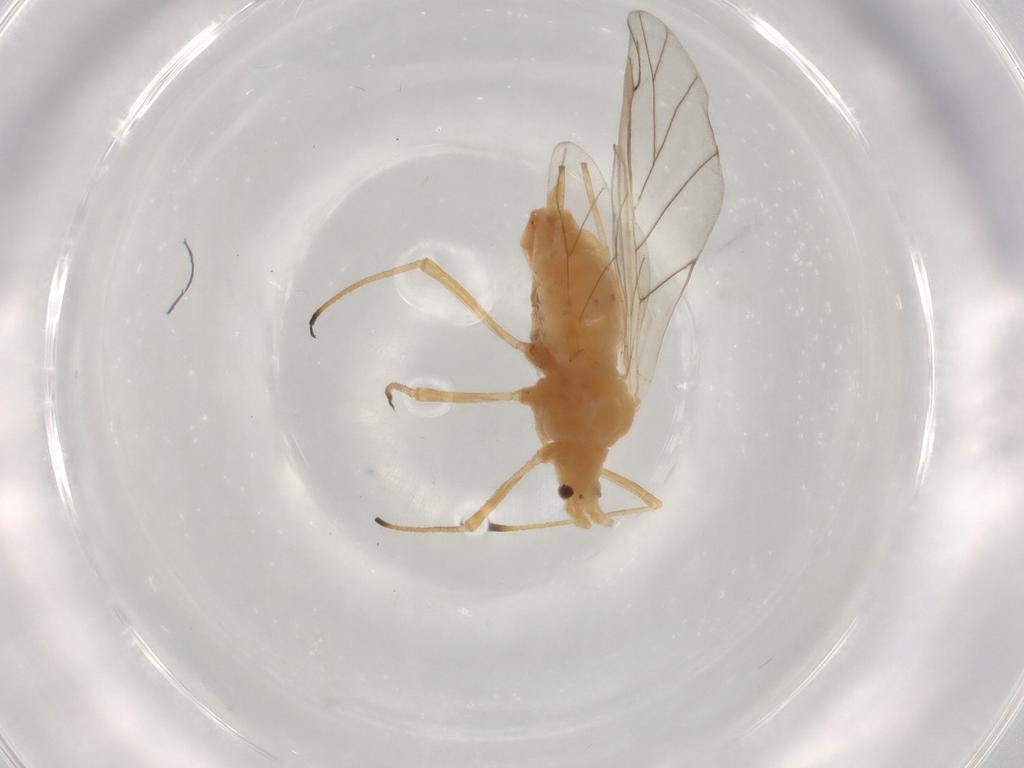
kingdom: Animalia
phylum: Arthropoda
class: Insecta
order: Hemiptera
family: Aphididae
